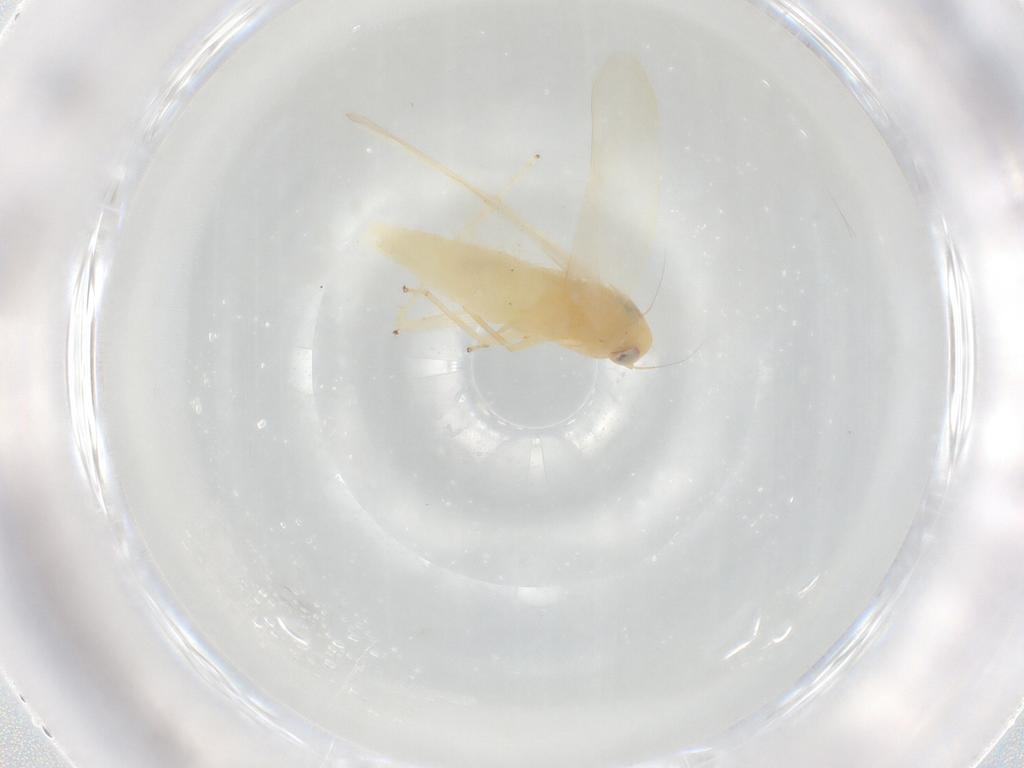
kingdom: Animalia
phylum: Arthropoda
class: Insecta
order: Hemiptera
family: Cicadellidae
